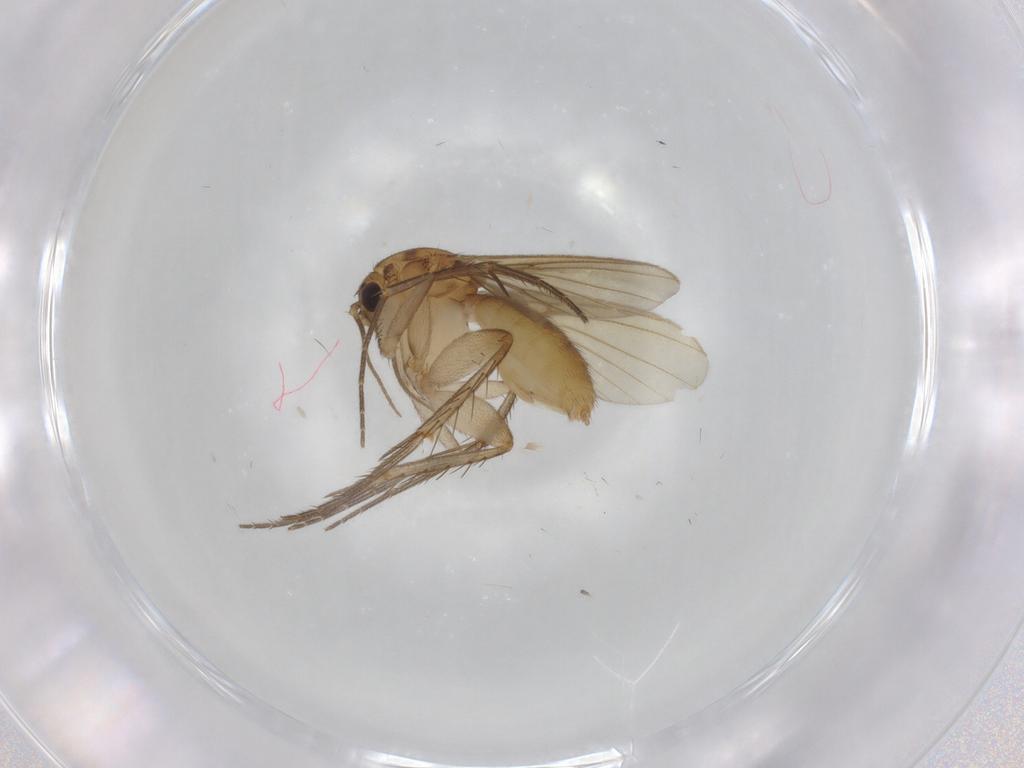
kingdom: Animalia
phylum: Arthropoda
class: Insecta
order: Diptera
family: Mycetophilidae
